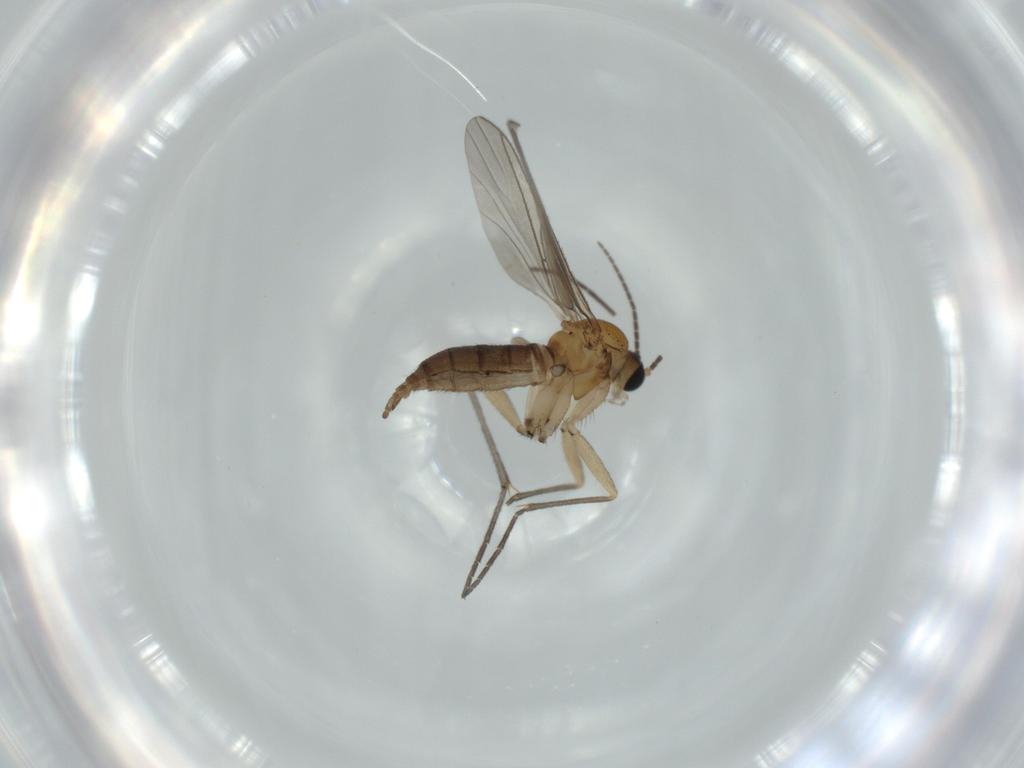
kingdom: Animalia
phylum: Arthropoda
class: Insecta
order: Diptera
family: Sciaridae
